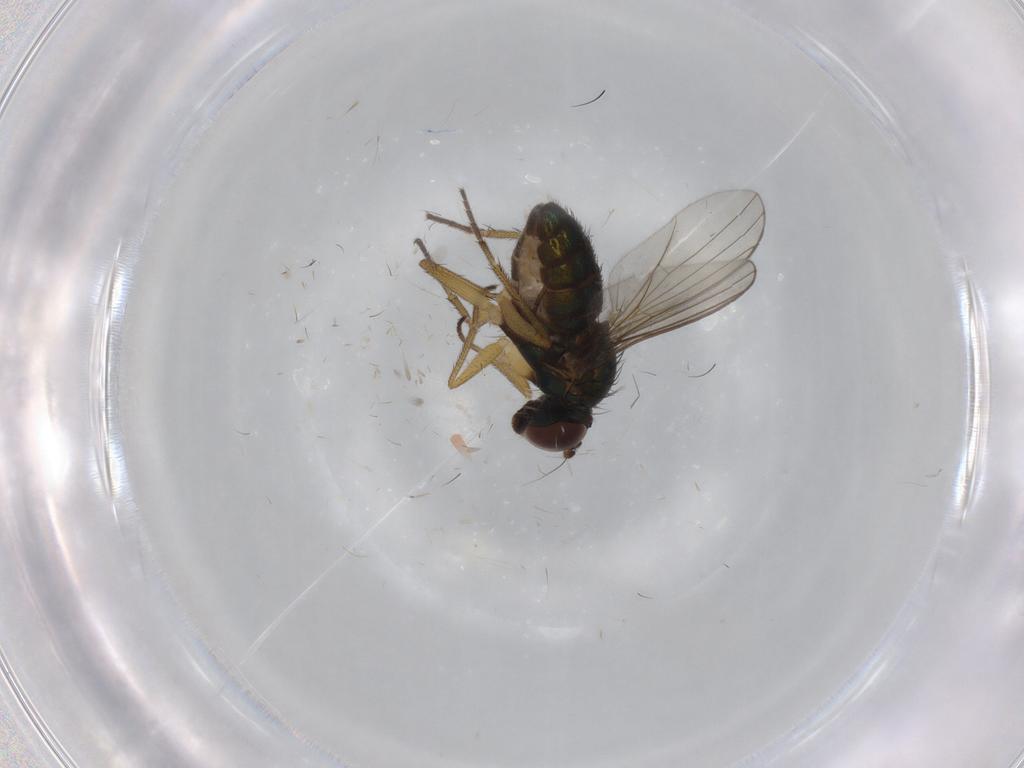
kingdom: Animalia
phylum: Arthropoda
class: Insecta
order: Diptera
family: Dolichopodidae
